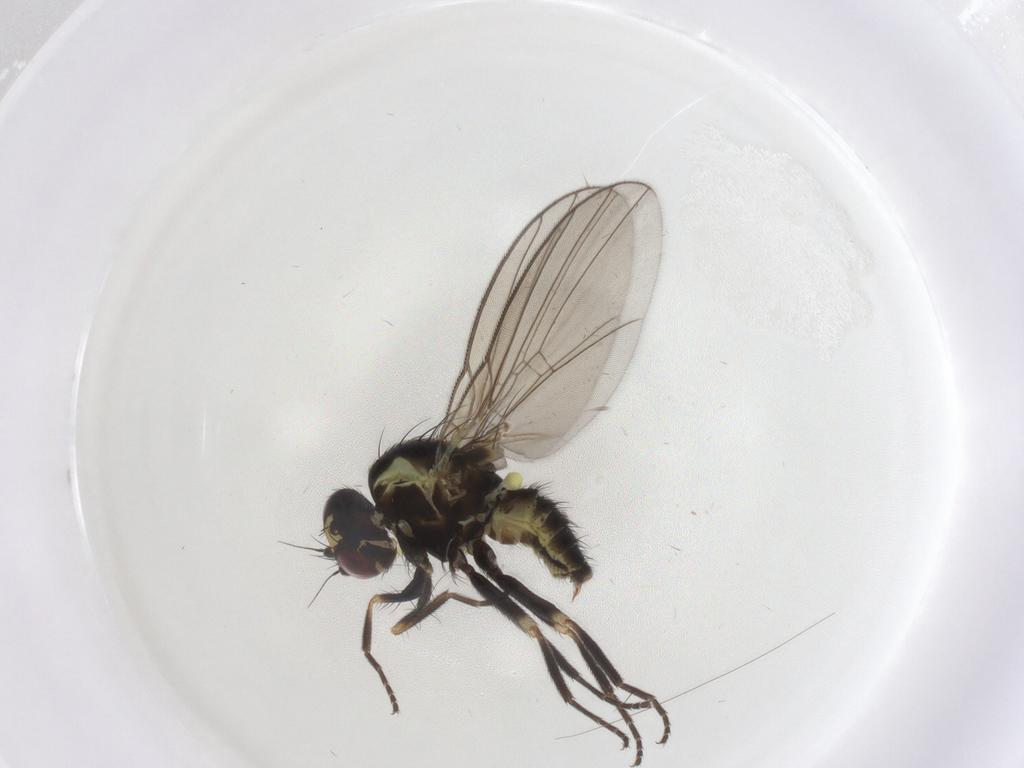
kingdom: Animalia
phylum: Arthropoda
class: Insecta
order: Diptera
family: Agromyzidae
